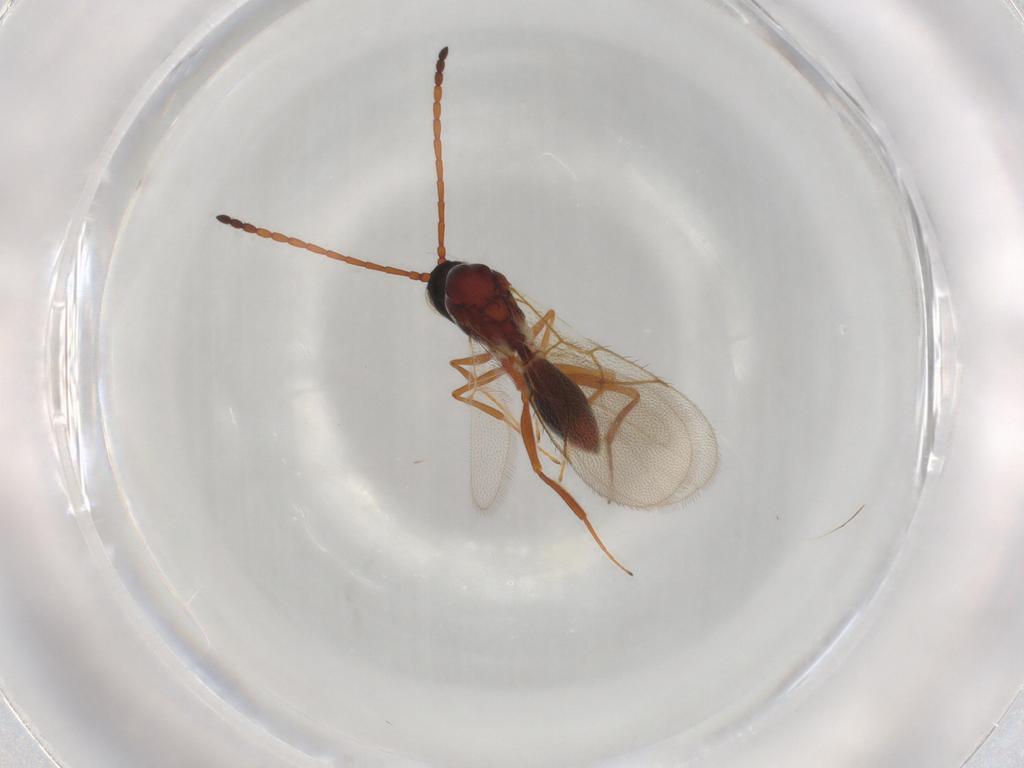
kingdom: Animalia
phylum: Arthropoda
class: Insecta
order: Hymenoptera
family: Figitidae
